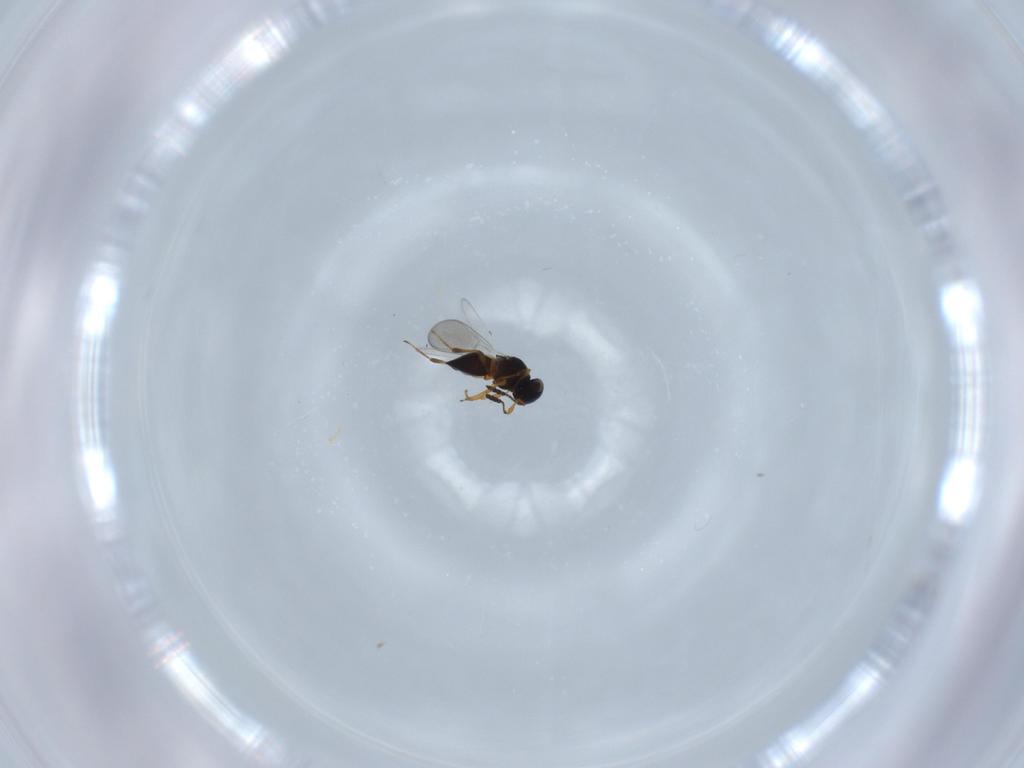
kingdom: Animalia
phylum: Arthropoda
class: Insecta
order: Hymenoptera
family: Platygastridae
